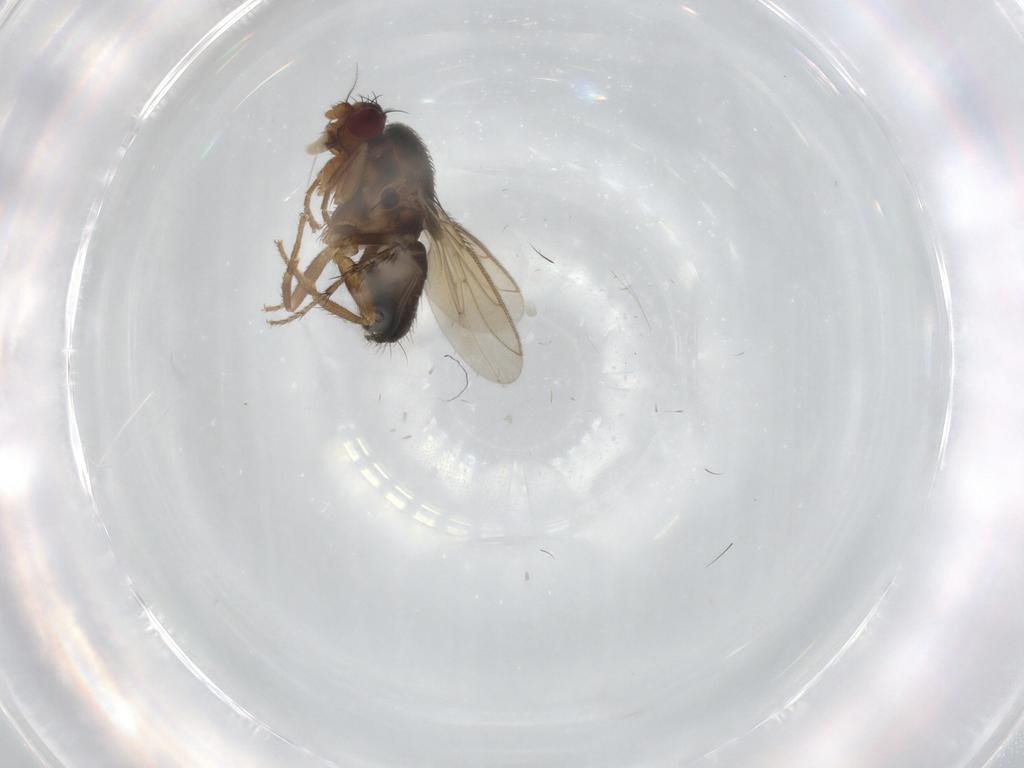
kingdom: Animalia
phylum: Arthropoda
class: Insecta
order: Diptera
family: Sphaeroceridae
